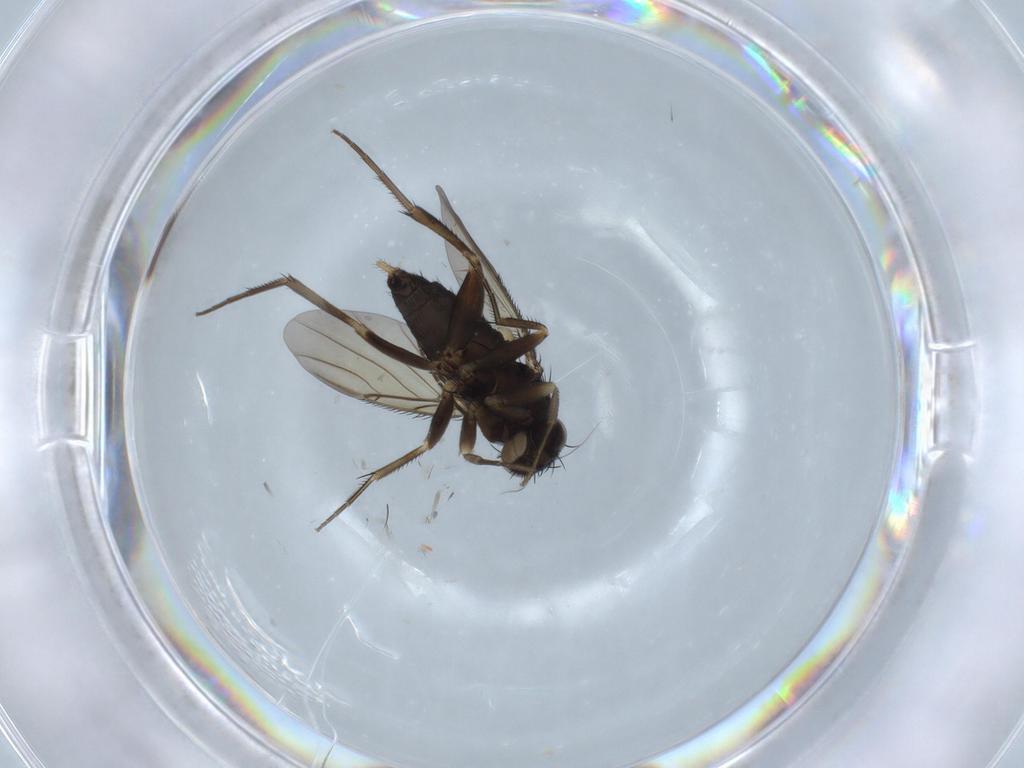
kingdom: Animalia
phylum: Arthropoda
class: Insecta
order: Diptera
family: Phoridae
